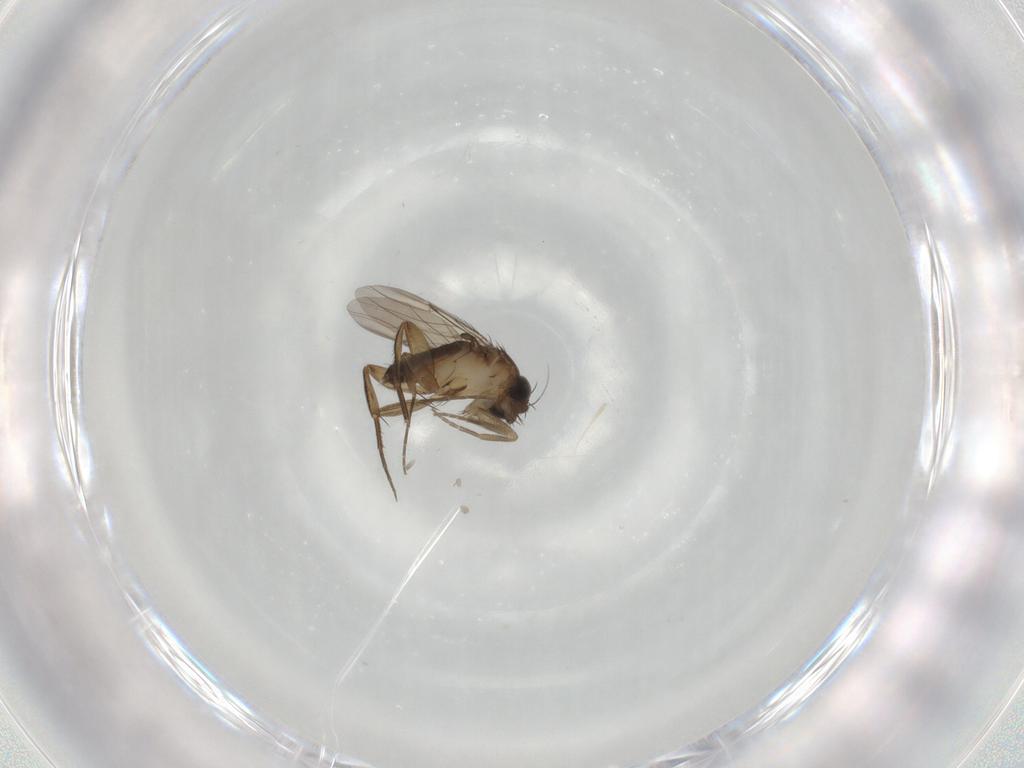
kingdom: Animalia
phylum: Arthropoda
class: Insecta
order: Diptera
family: Phoridae
